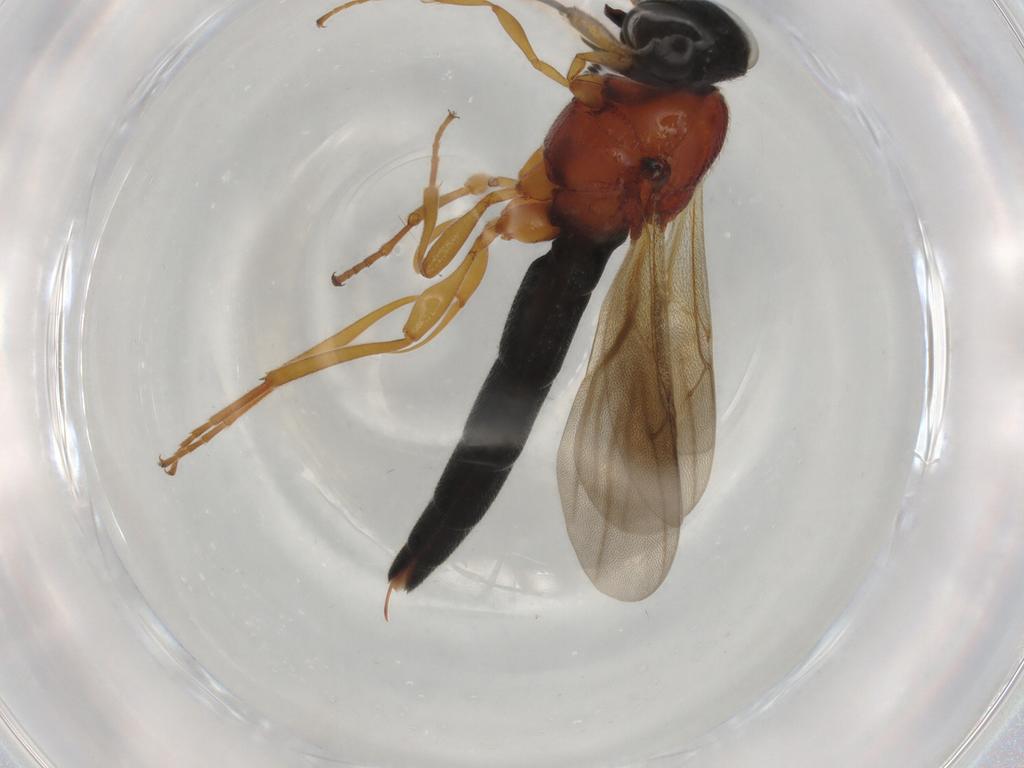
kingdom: Animalia
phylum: Arthropoda
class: Insecta
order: Hymenoptera
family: Scelionidae
